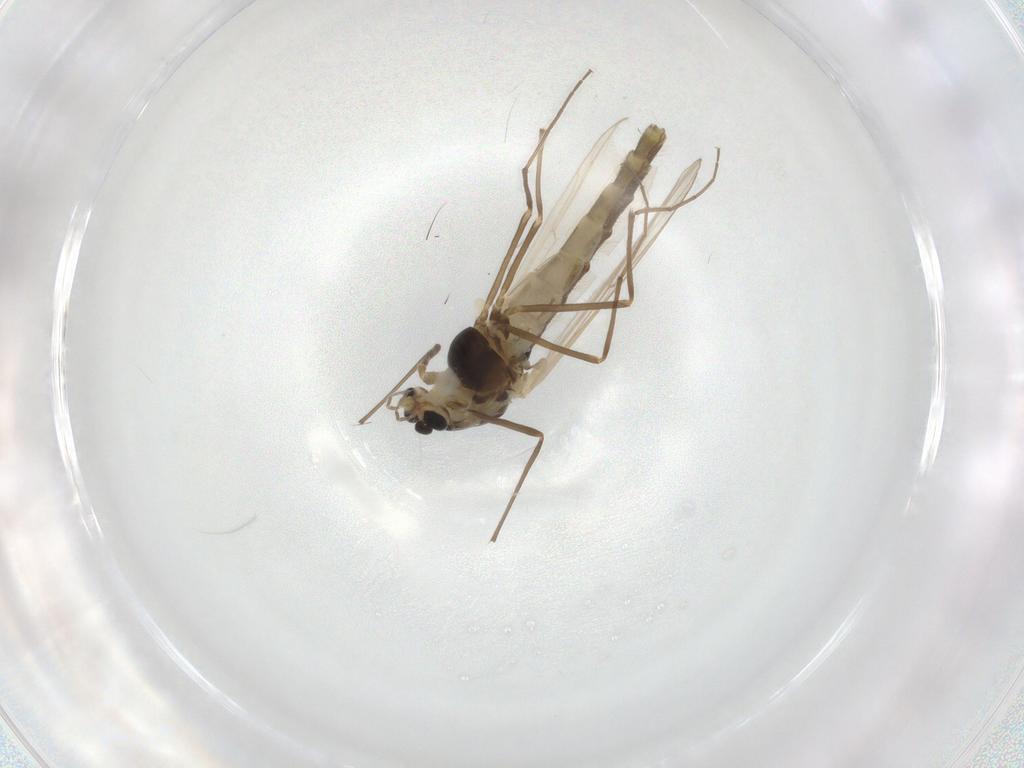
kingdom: Animalia
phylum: Arthropoda
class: Insecta
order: Diptera
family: Chironomidae
